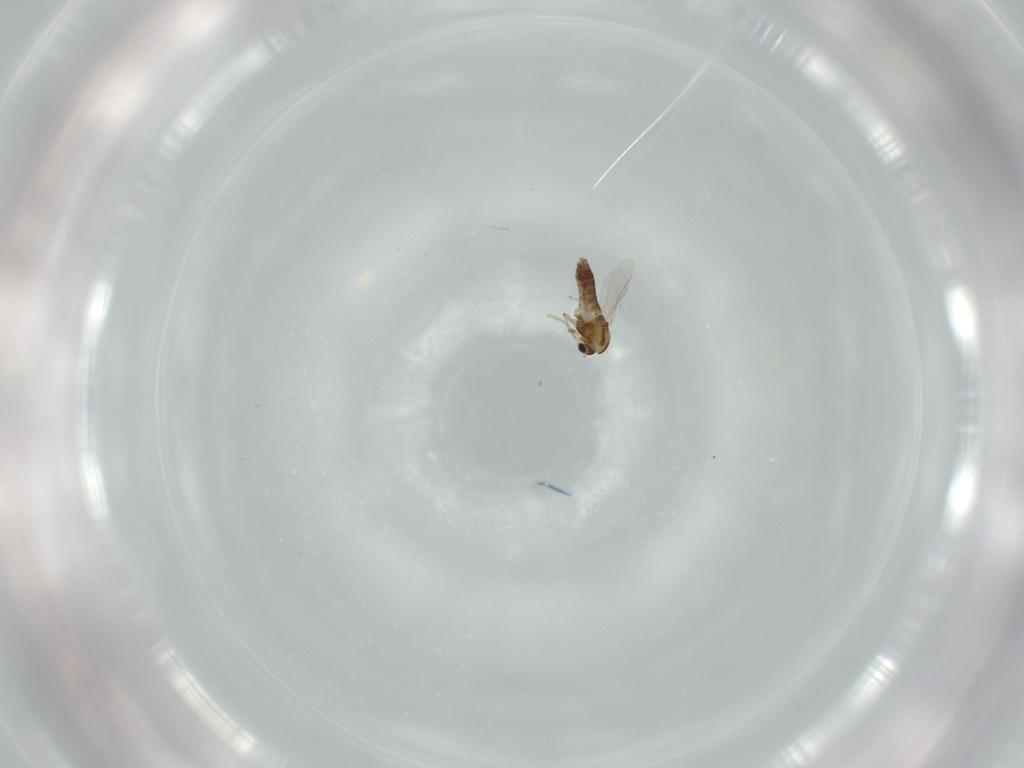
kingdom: Animalia
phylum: Arthropoda
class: Insecta
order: Diptera
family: Chironomidae
